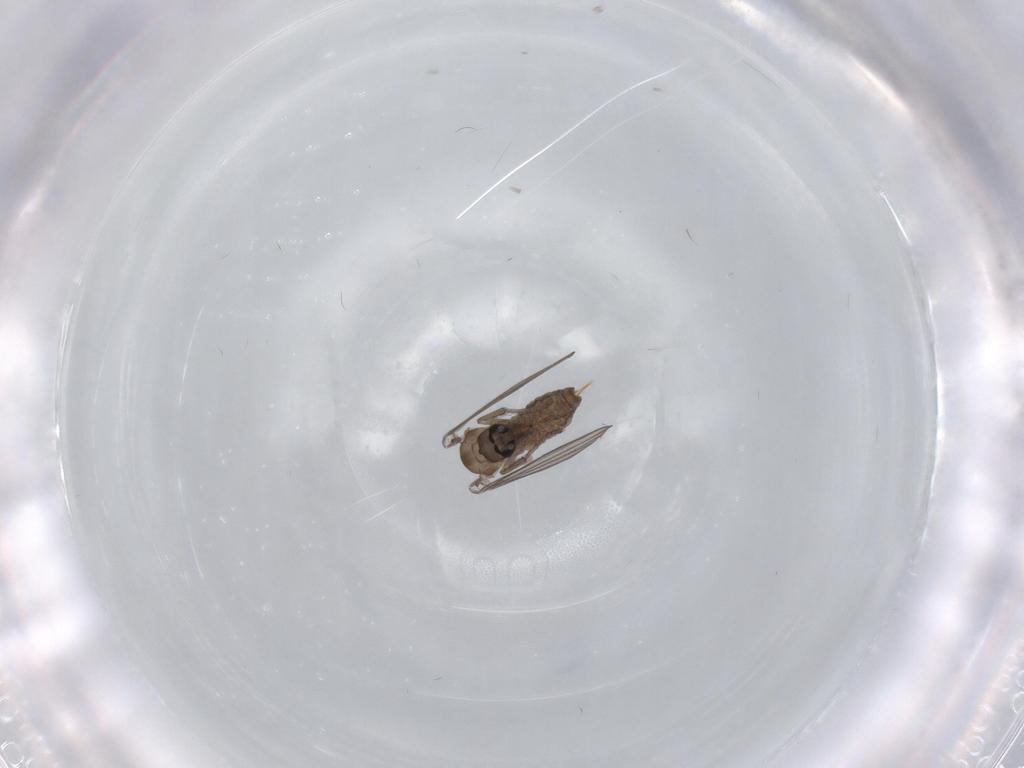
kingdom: Animalia
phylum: Arthropoda
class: Insecta
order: Diptera
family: Psychodidae
